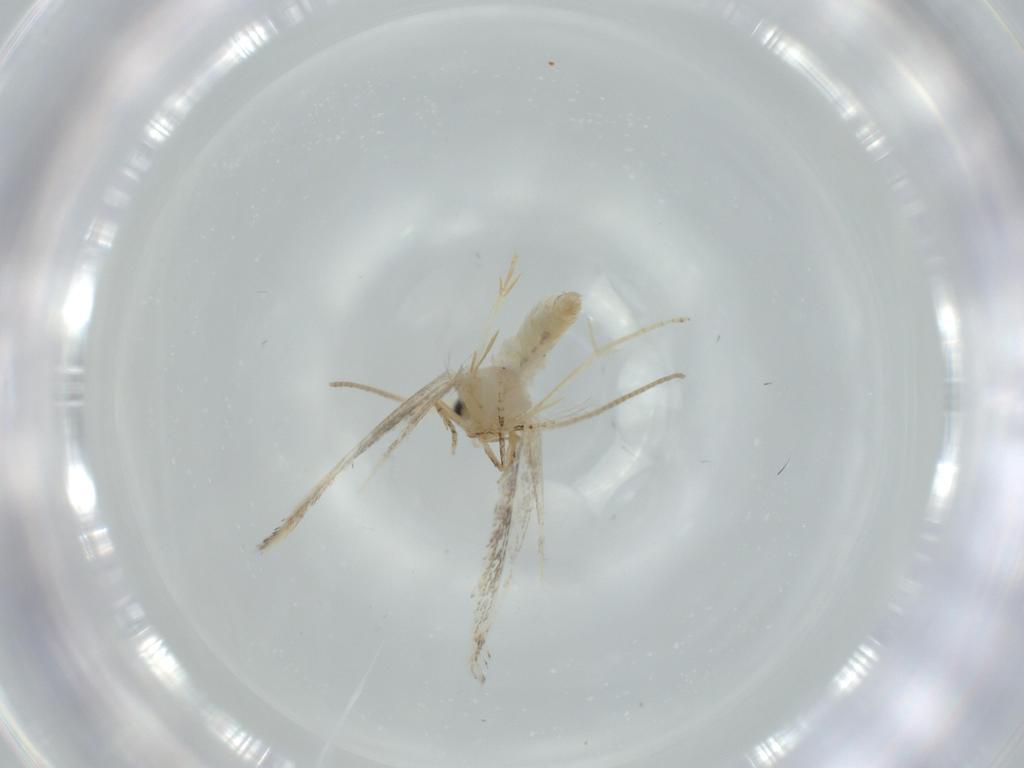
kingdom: Animalia
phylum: Arthropoda
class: Insecta
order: Lepidoptera
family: Bucculatricidae
